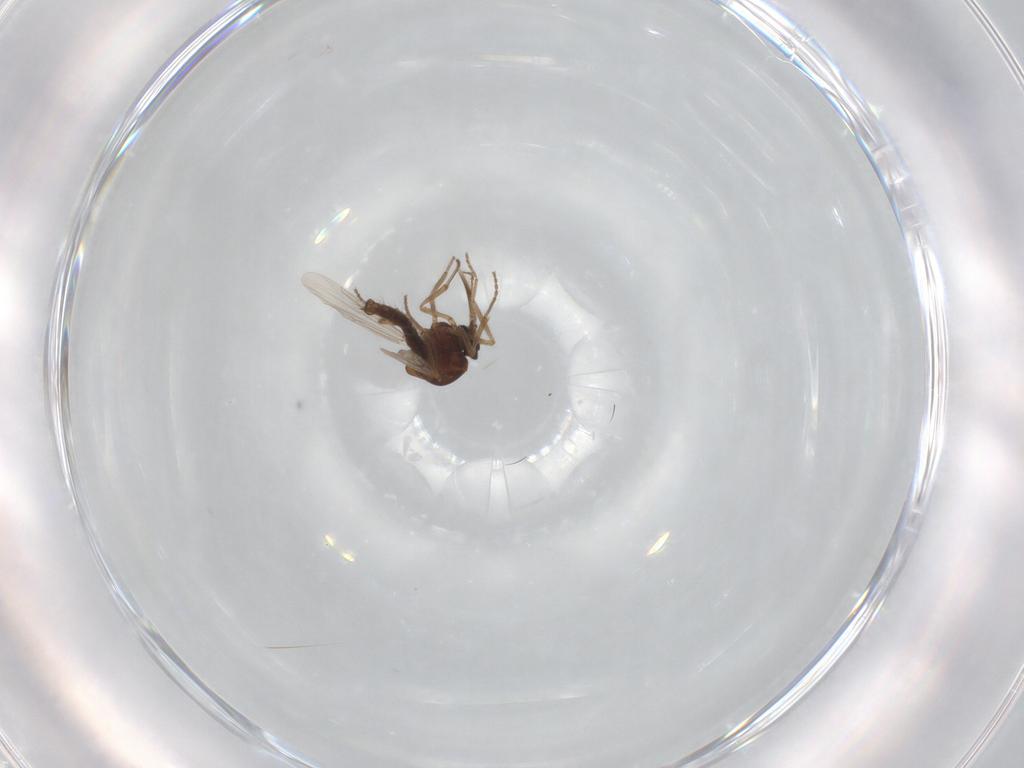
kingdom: Animalia
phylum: Arthropoda
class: Insecta
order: Diptera
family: Ceratopogonidae
